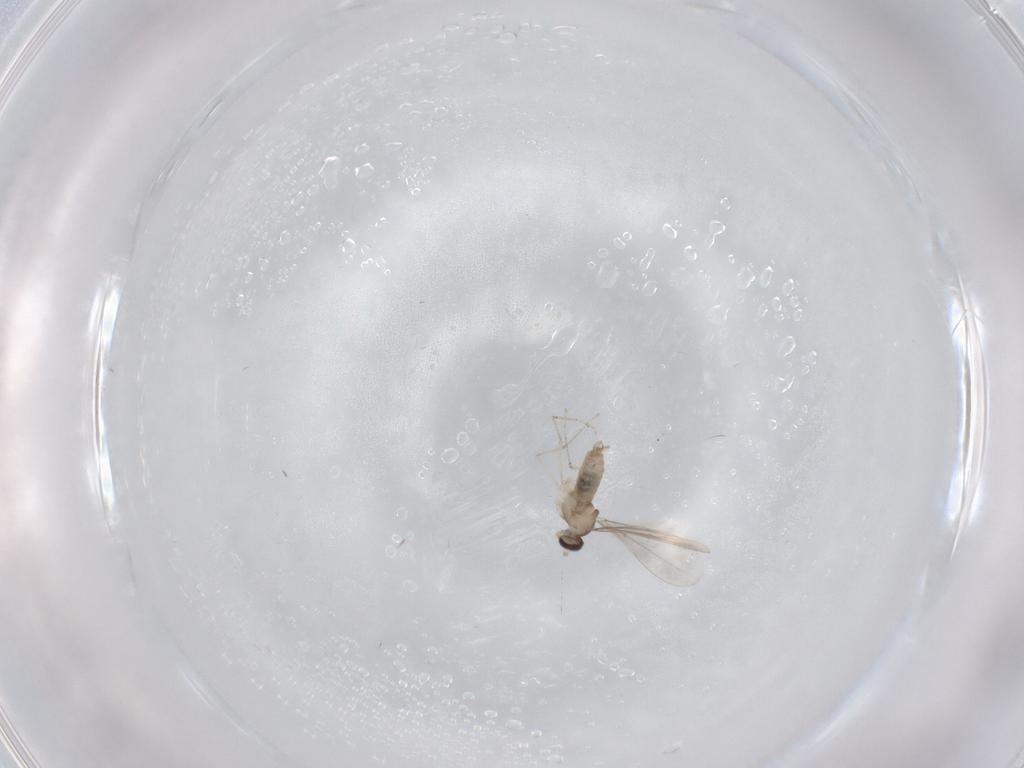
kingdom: Animalia
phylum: Arthropoda
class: Insecta
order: Diptera
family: Cecidomyiidae
